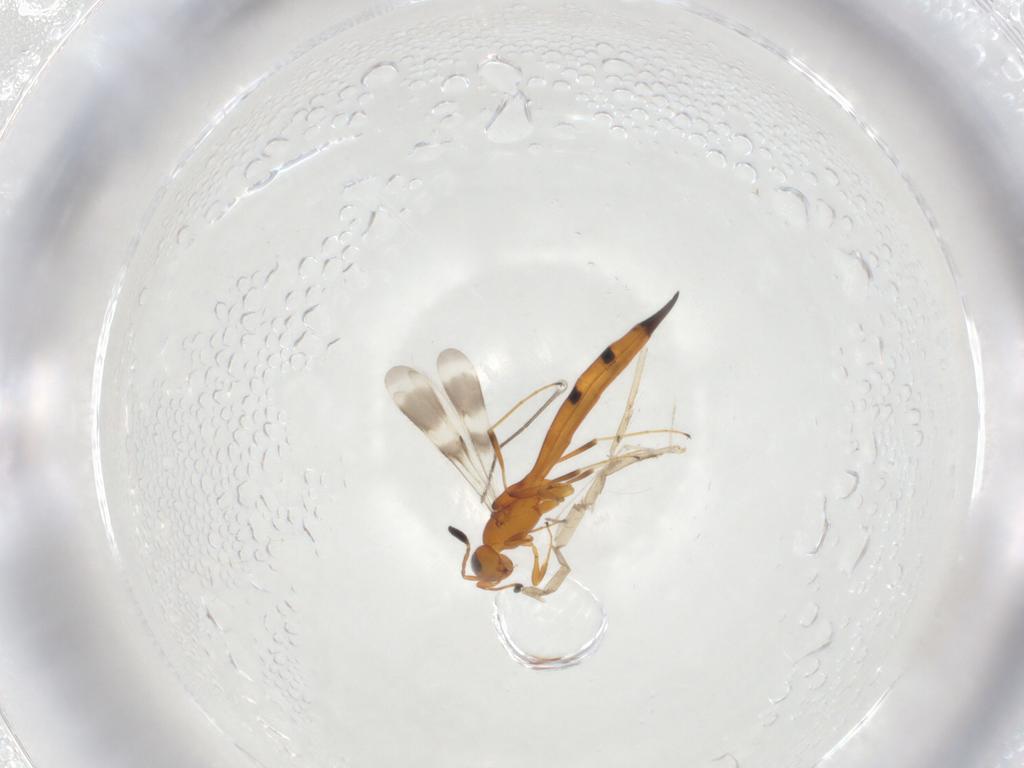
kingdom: Animalia
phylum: Arthropoda
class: Insecta
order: Hymenoptera
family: Scelionidae
